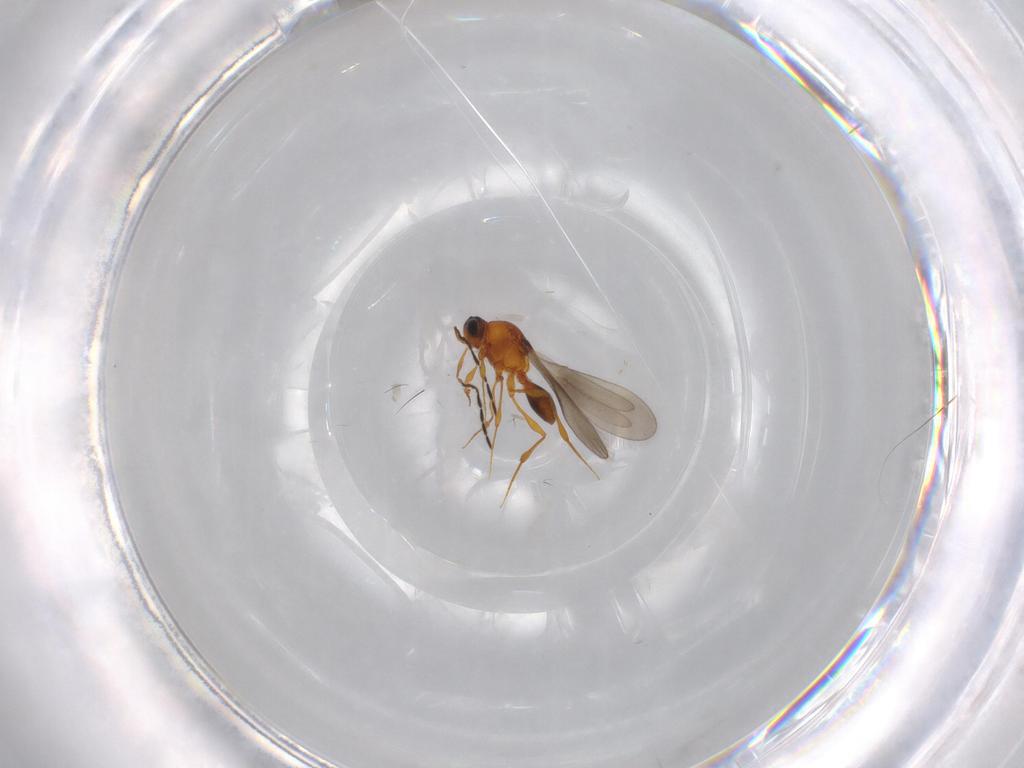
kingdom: Animalia
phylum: Arthropoda
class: Insecta
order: Hymenoptera
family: Platygastridae
